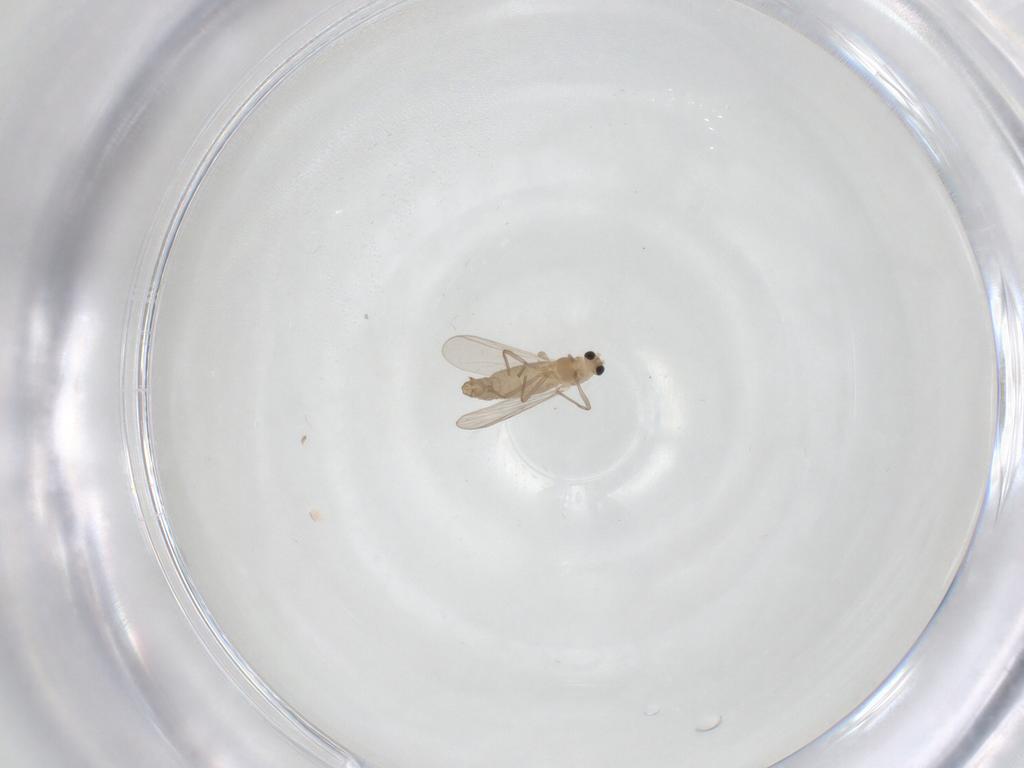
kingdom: Animalia
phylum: Arthropoda
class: Insecta
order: Diptera
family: Chironomidae
